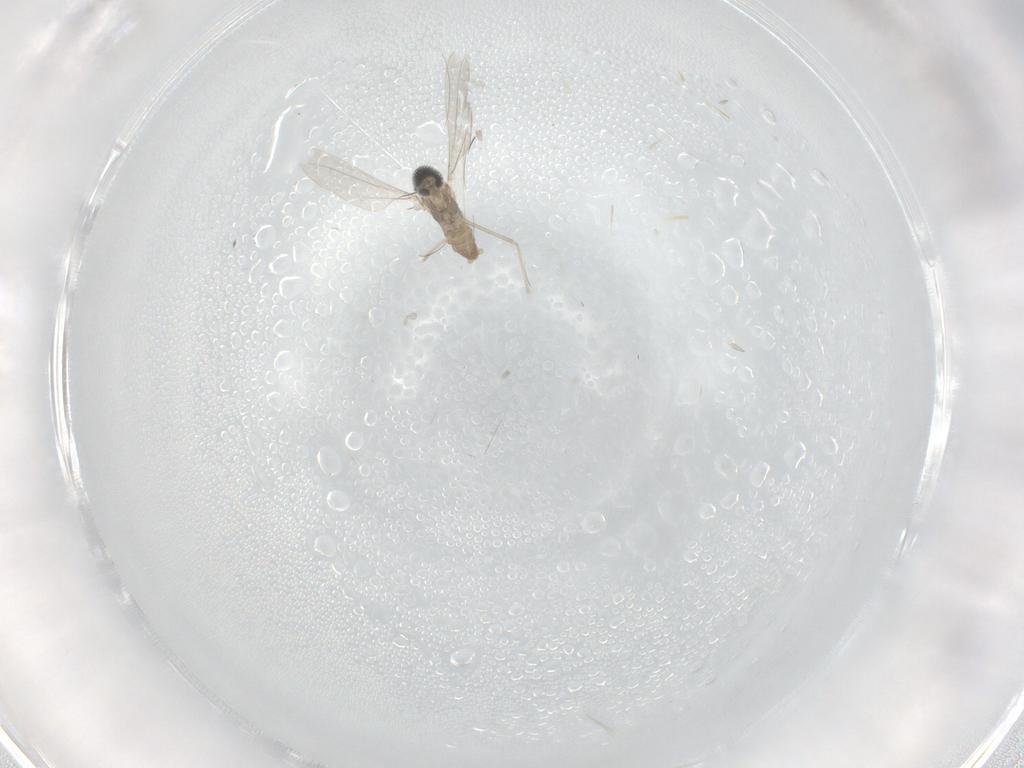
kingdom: Animalia
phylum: Arthropoda
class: Insecta
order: Diptera
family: Cecidomyiidae
